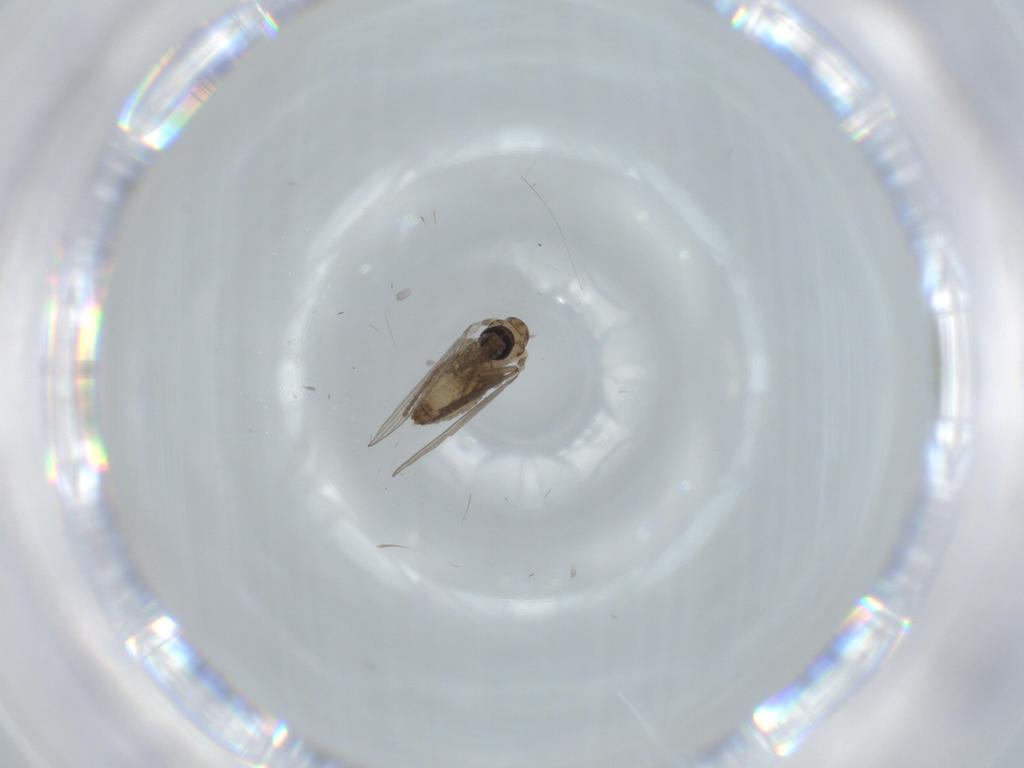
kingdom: Animalia
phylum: Arthropoda
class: Insecta
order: Diptera
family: Psychodidae
